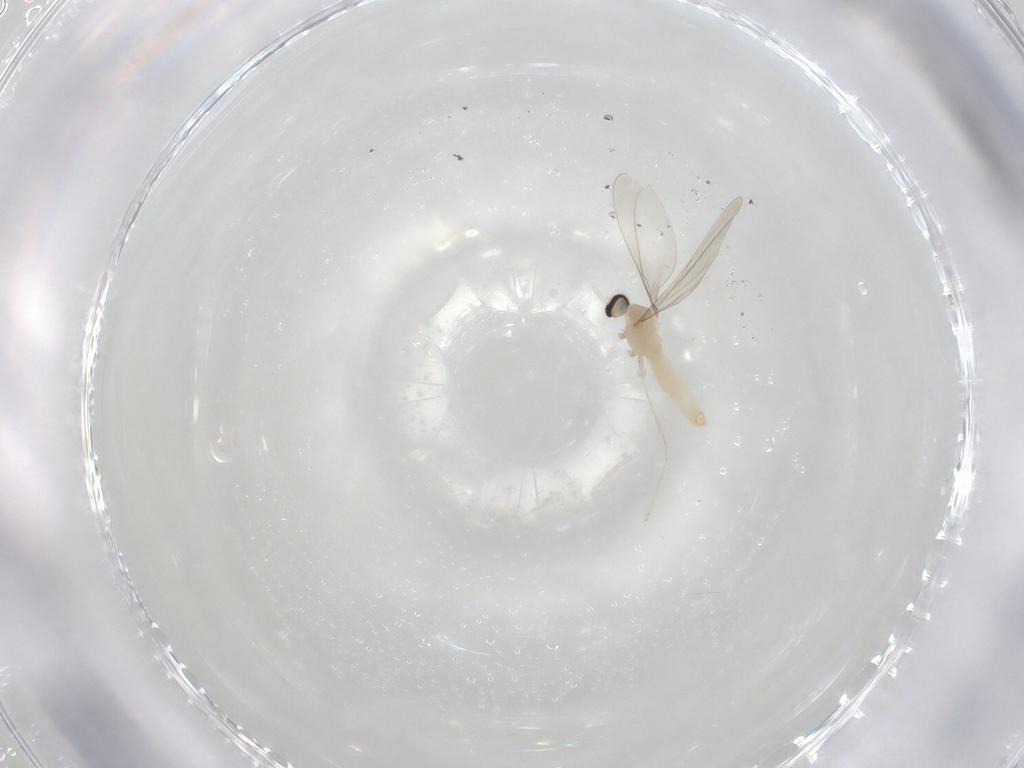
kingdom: Animalia
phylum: Arthropoda
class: Insecta
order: Diptera
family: Cecidomyiidae
